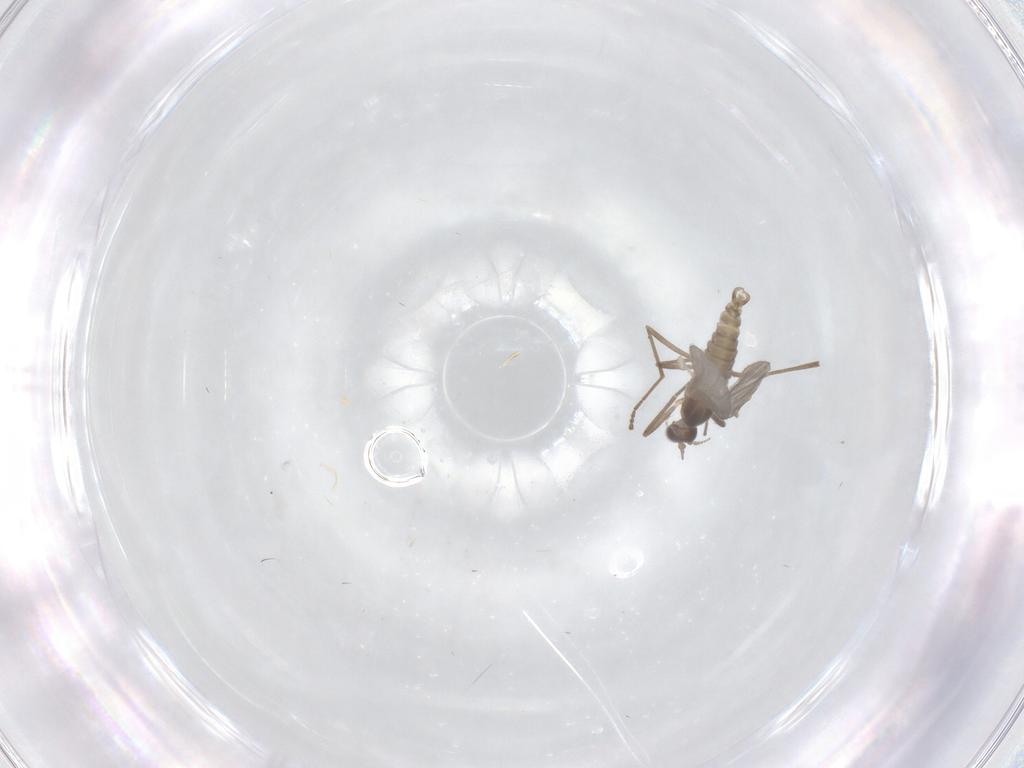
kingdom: Animalia
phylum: Arthropoda
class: Insecta
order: Diptera
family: Cecidomyiidae
